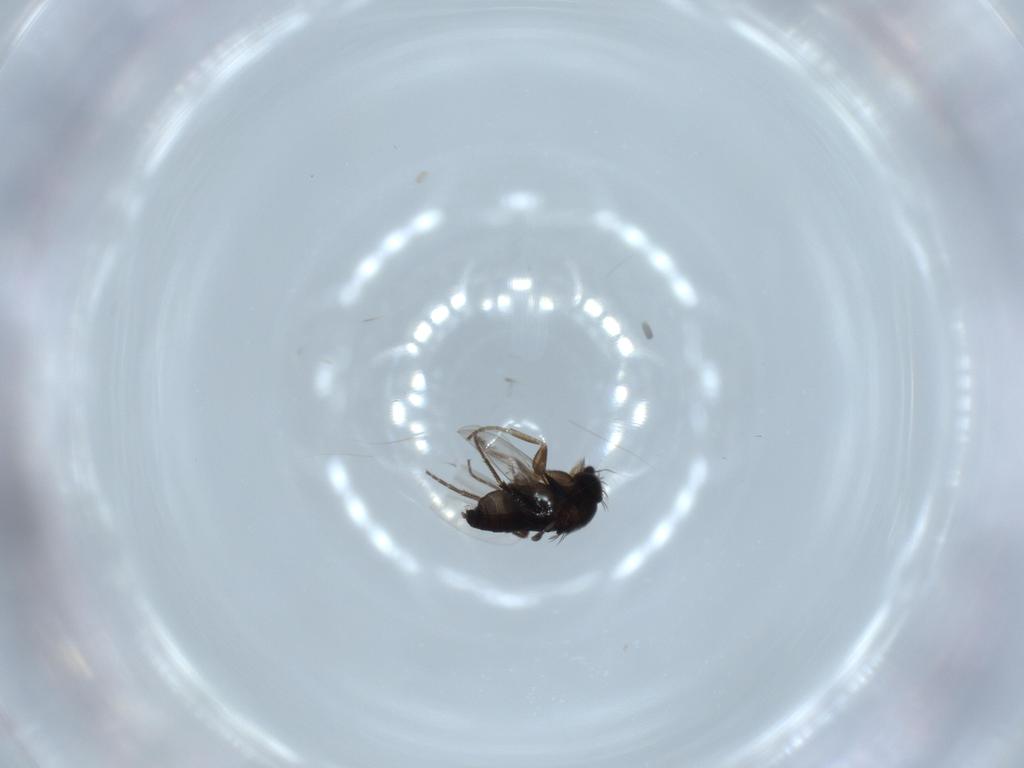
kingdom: Animalia
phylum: Arthropoda
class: Insecta
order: Diptera
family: Phoridae
